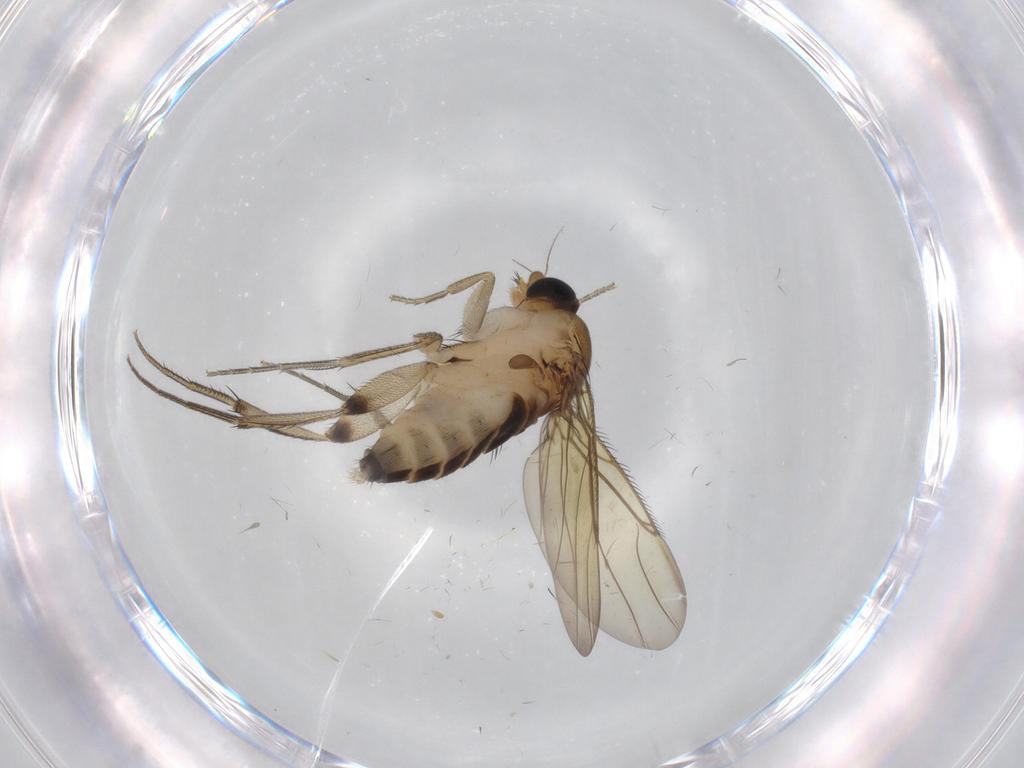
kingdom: Animalia
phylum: Arthropoda
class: Insecta
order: Diptera
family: Phoridae
